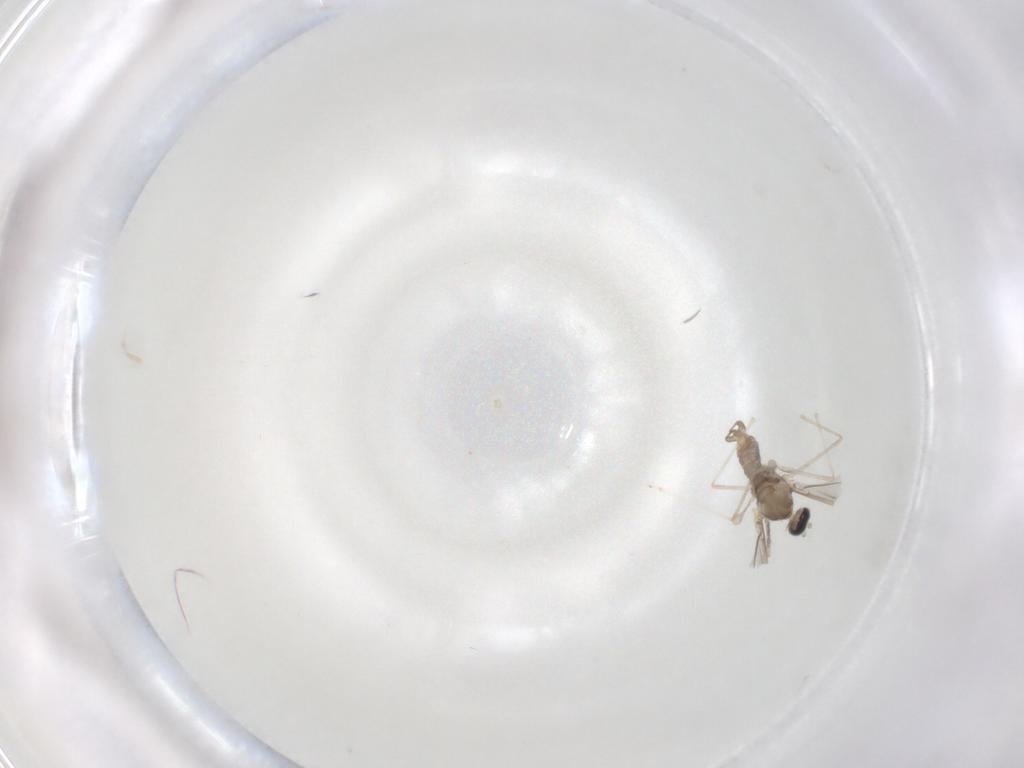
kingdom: Animalia
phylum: Arthropoda
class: Insecta
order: Diptera
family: Cecidomyiidae
